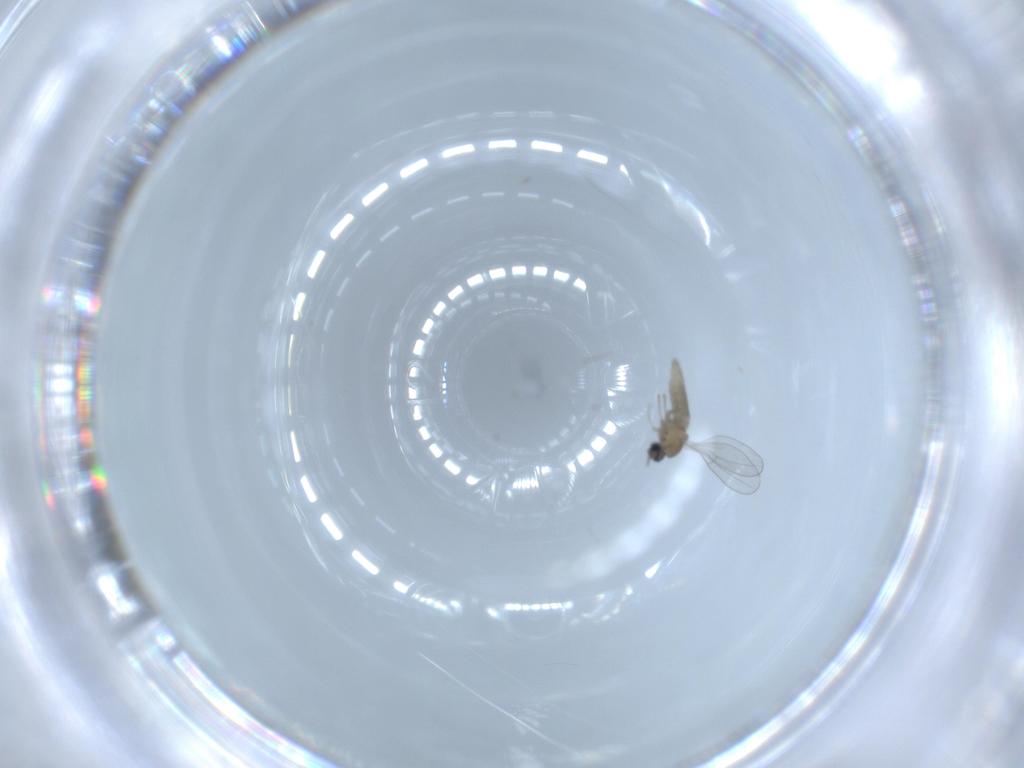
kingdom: Animalia
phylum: Arthropoda
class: Insecta
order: Diptera
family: Cecidomyiidae
